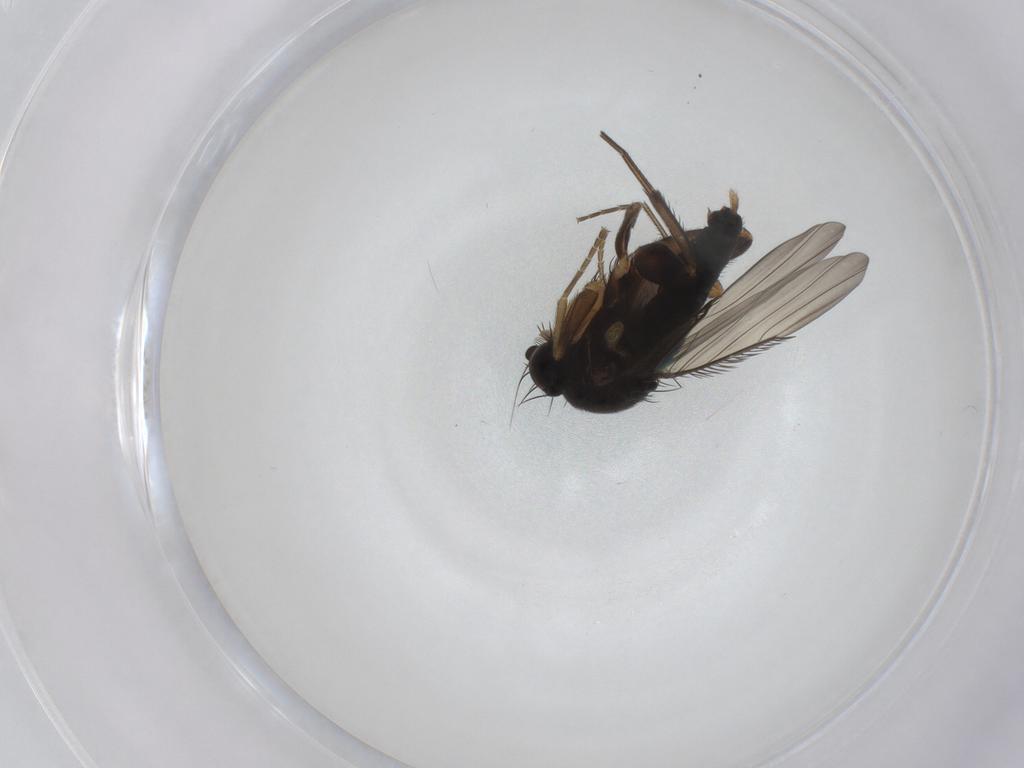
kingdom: Animalia
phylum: Arthropoda
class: Insecta
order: Diptera
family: Phoridae
